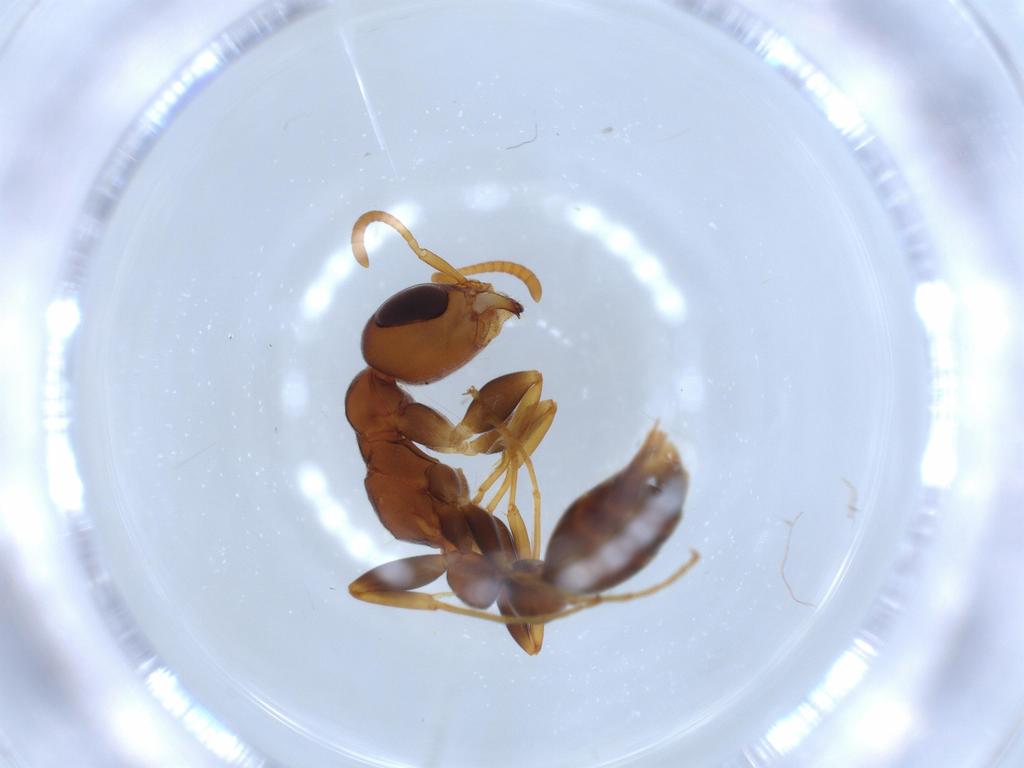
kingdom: Animalia
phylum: Arthropoda
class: Insecta
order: Hymenoptera
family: Formicidae
